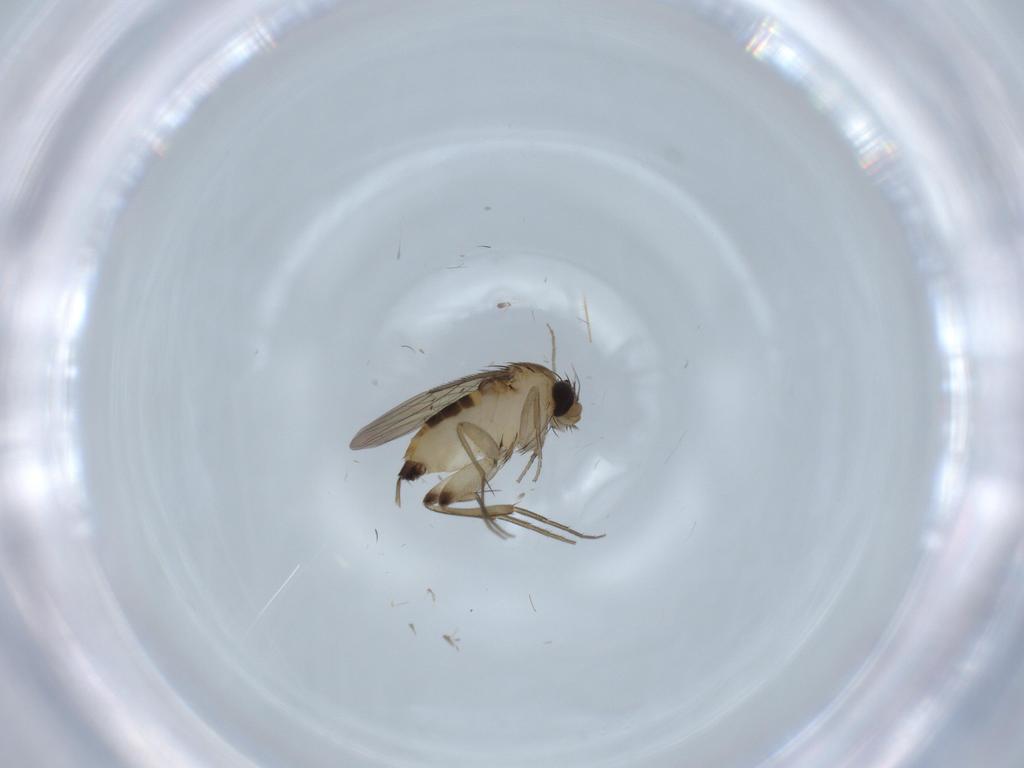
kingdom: Animalia
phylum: Arthropoda
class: Insecta
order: Diptera
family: Phoridae
